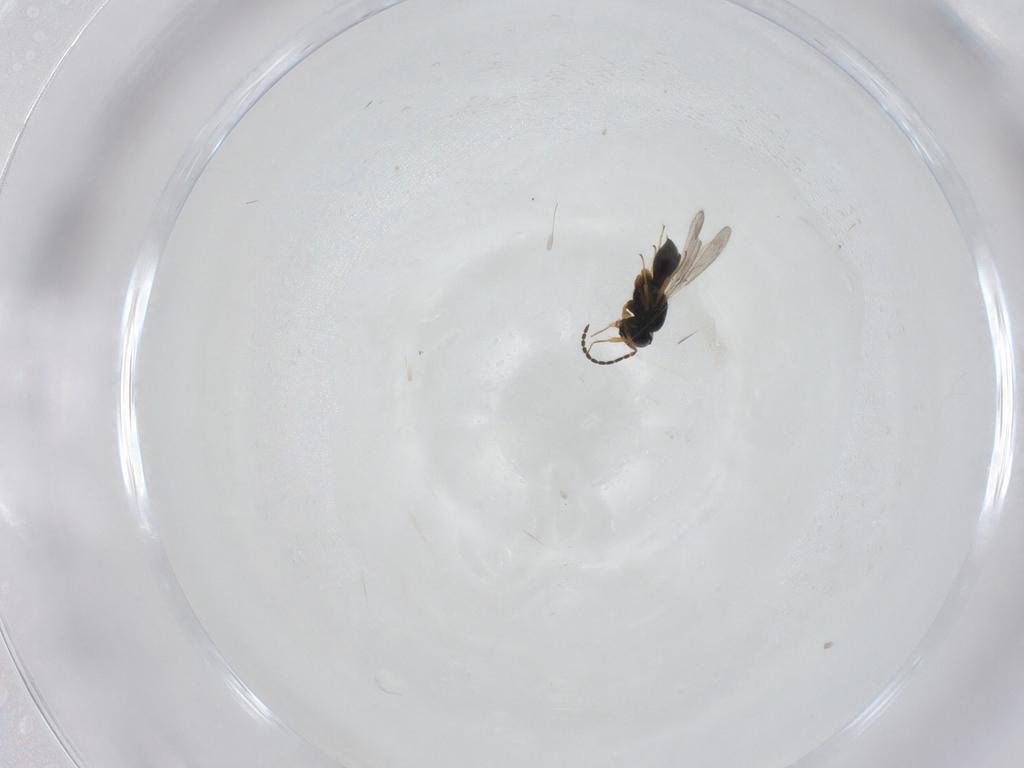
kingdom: Animalia
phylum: Arthropoda
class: Insecta
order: Hymenoptera
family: Scelionidae
